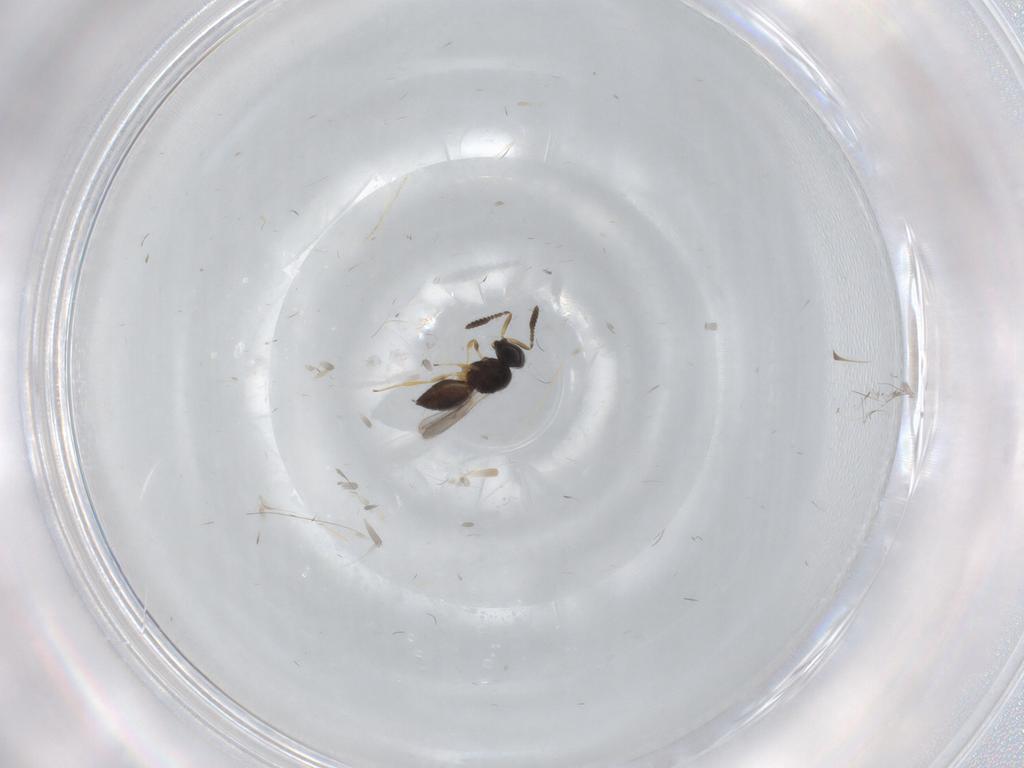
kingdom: Animalia
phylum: Arthropoda
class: Insecta
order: Hymenoptera
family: Scelionidae
